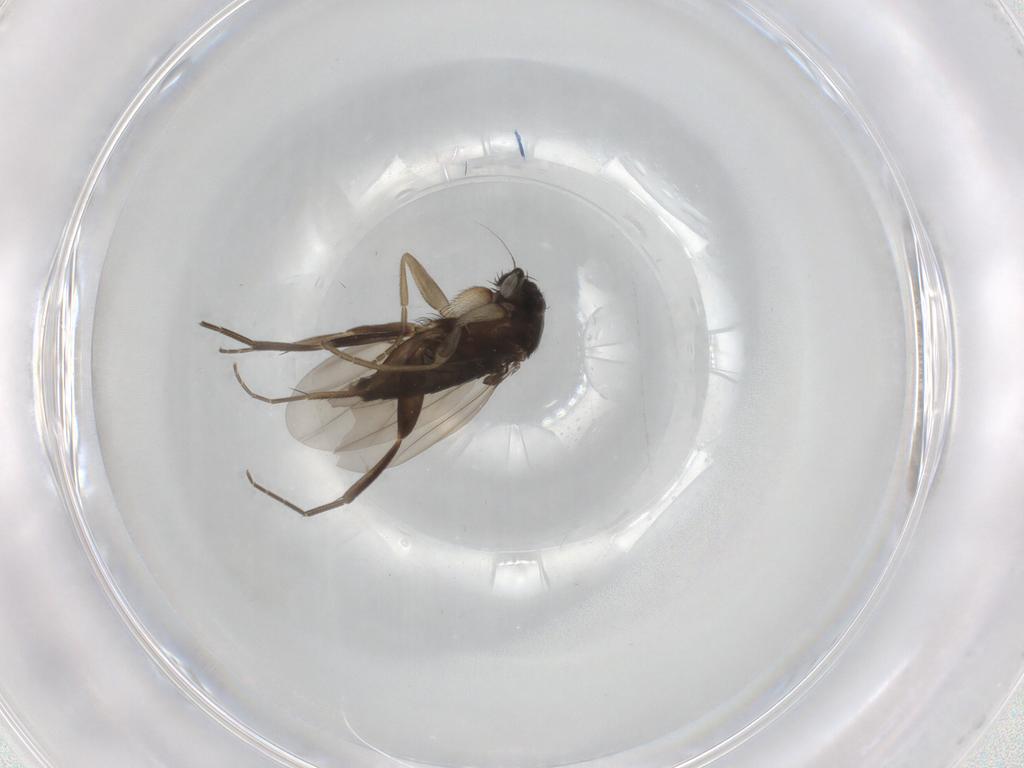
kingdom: Animalia
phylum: Arthropoda
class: Insecta
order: Diptera
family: Phoridae
